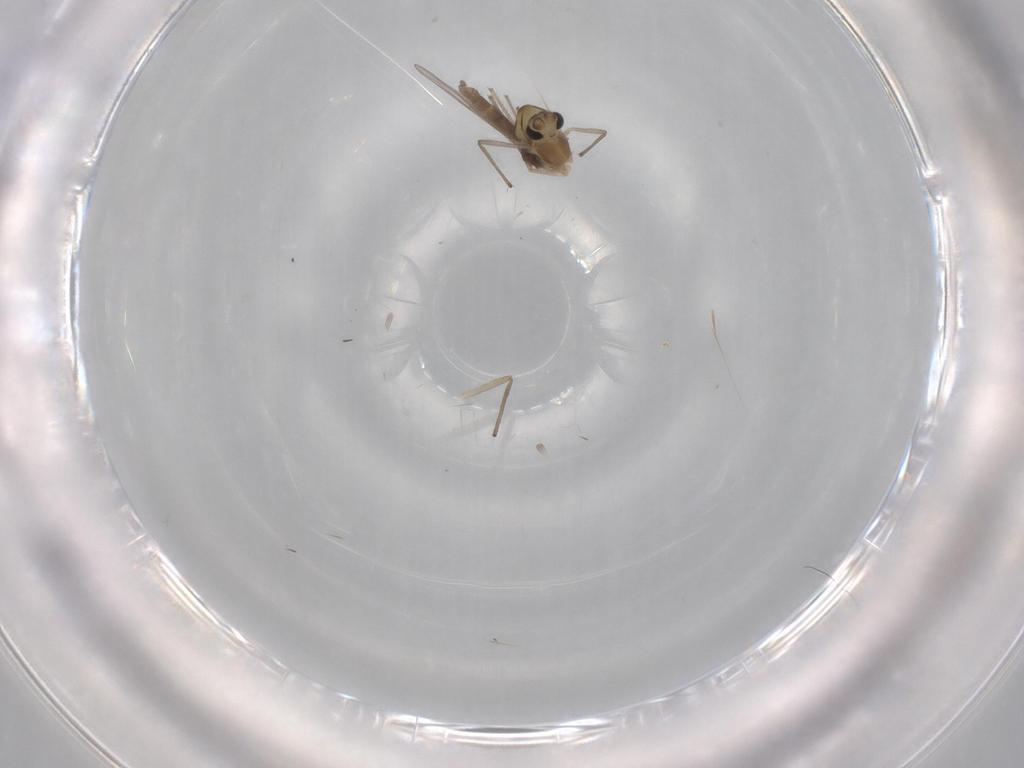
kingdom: Animalia
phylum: Arthropoda
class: Insecta
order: Diptera
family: Chironomidae
